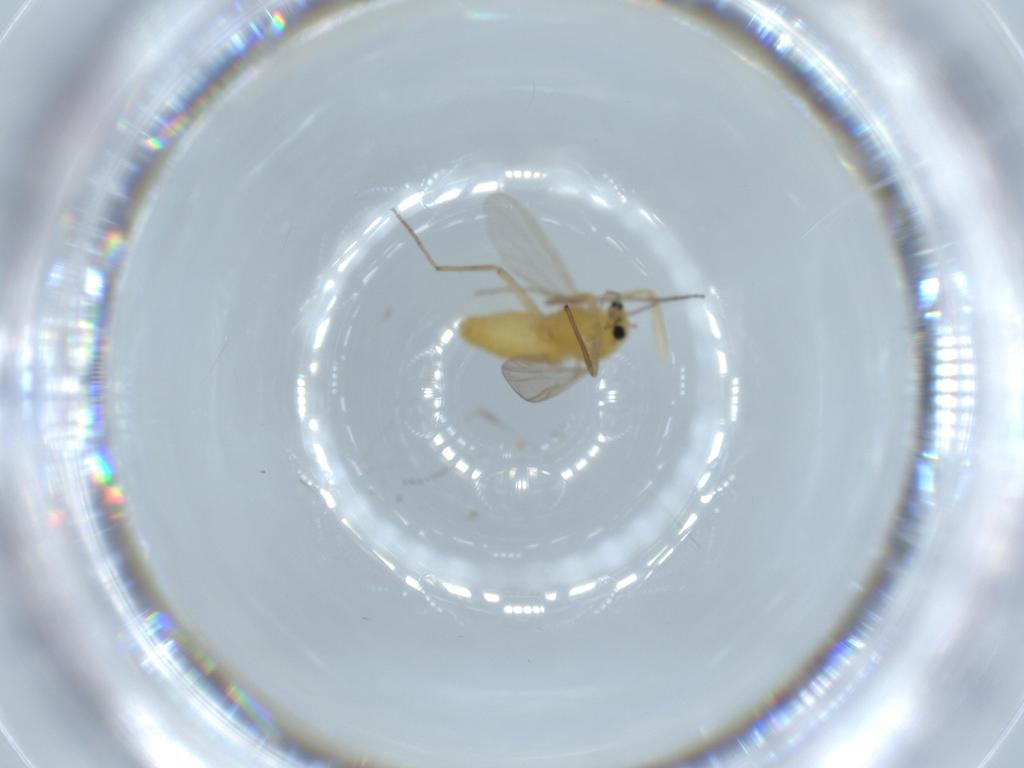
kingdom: Animalia
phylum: Arthropoda
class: Insecta
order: Diptera
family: Chironomidae
